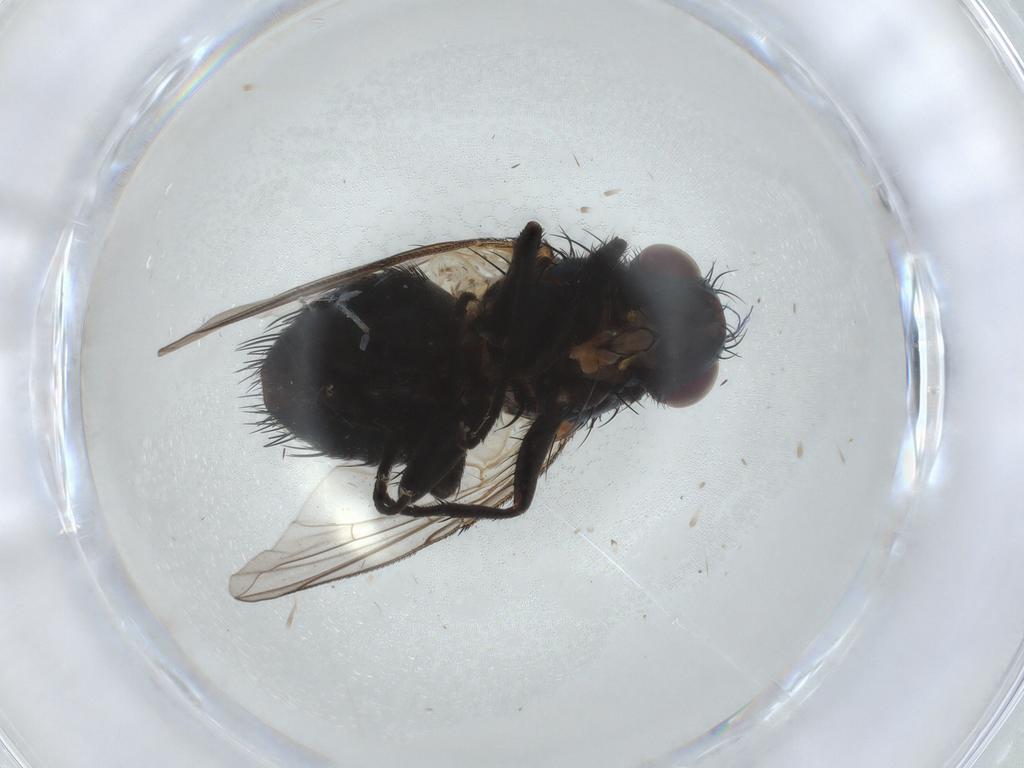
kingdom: Animalia
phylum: Arthropoda
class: Insecta
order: Diptera
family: Tachinidae
